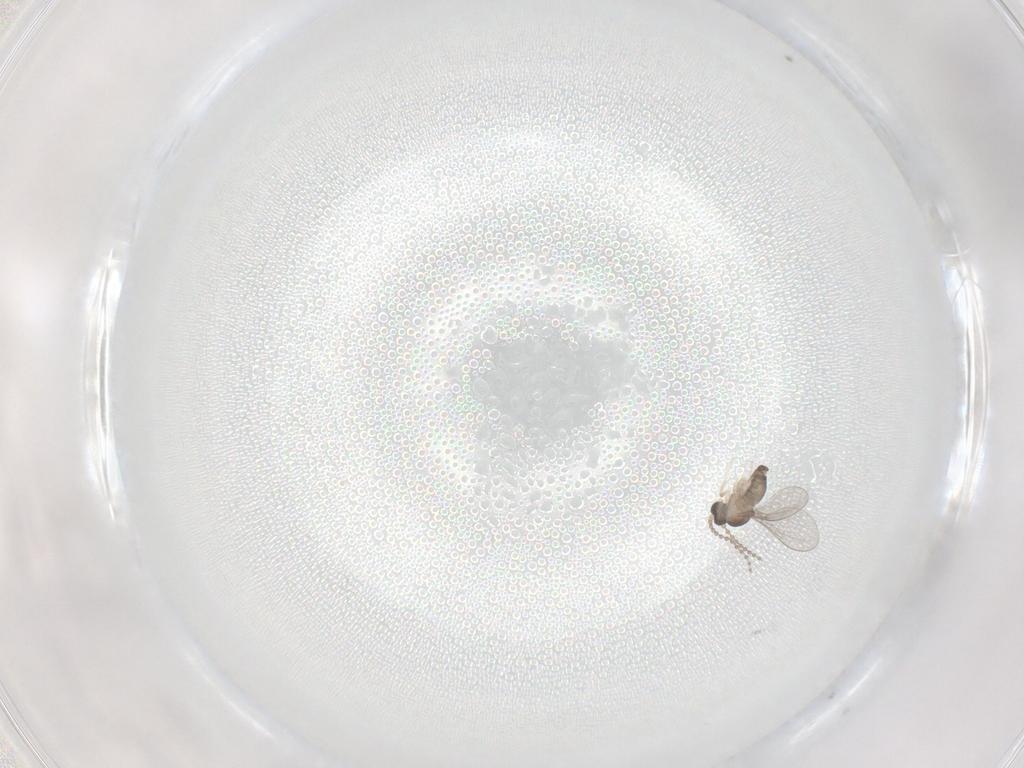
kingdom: Animalia
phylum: Arthropoda
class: Insecta
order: Diptera
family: Cecidomyiidae
